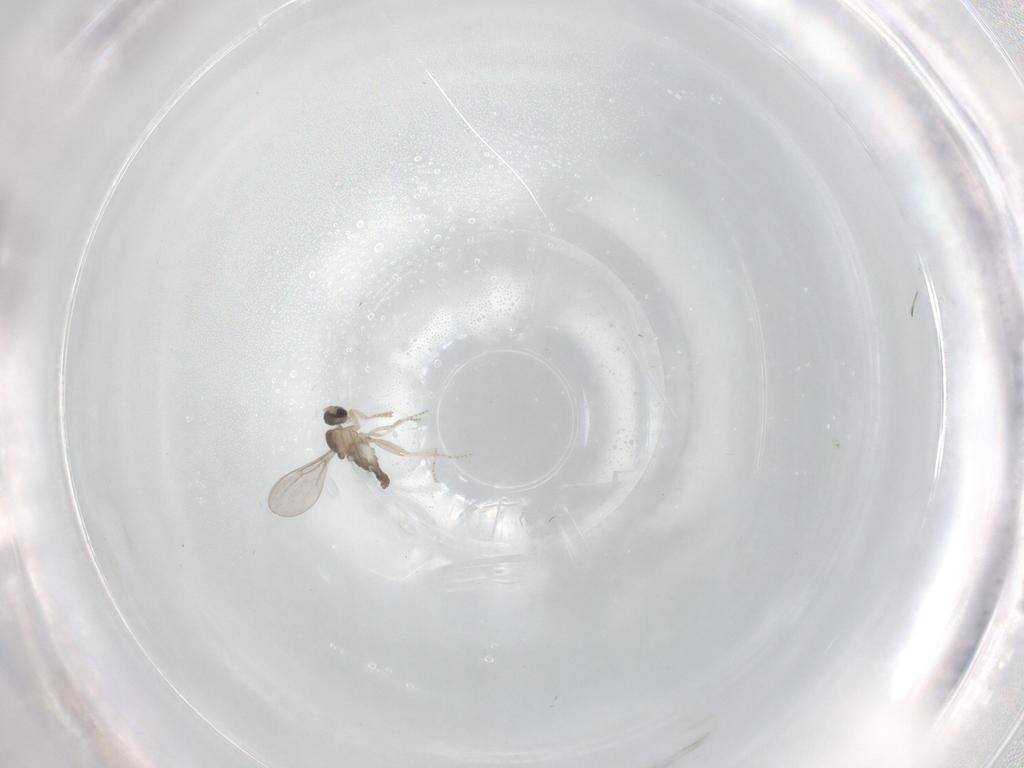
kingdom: Animalia
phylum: Arthropoda
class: Insecta
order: Diptera
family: Cecidomyiidae
